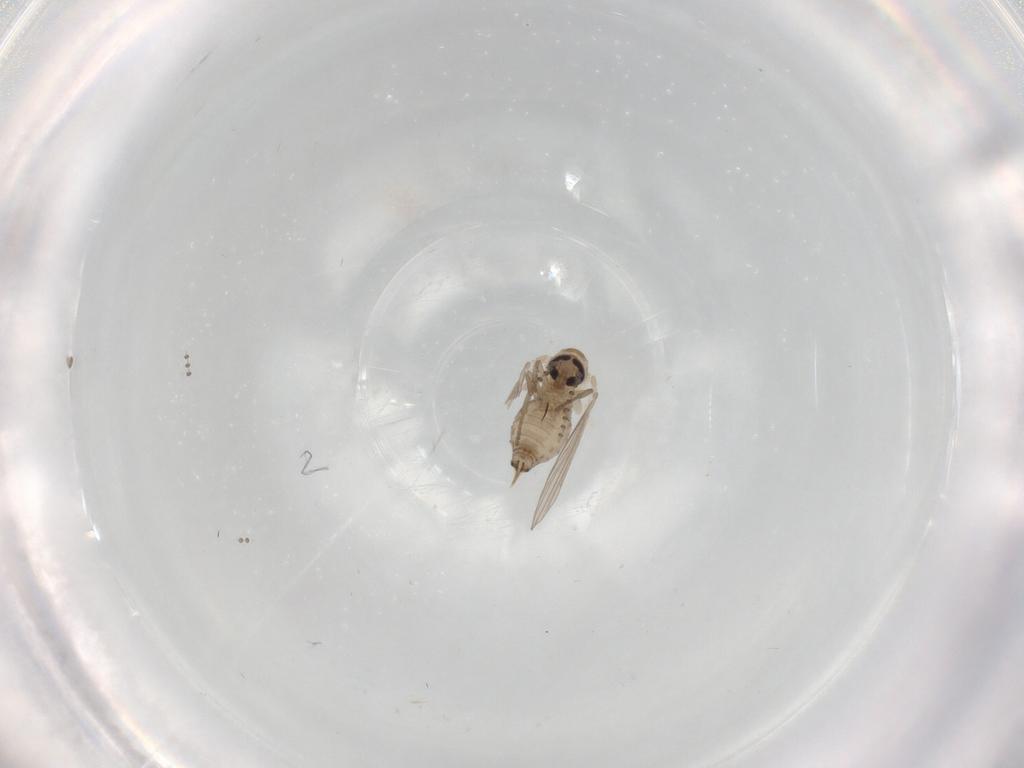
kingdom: Animalia
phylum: Arthropoda
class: Insecta
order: Diptera
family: Psychodidae
